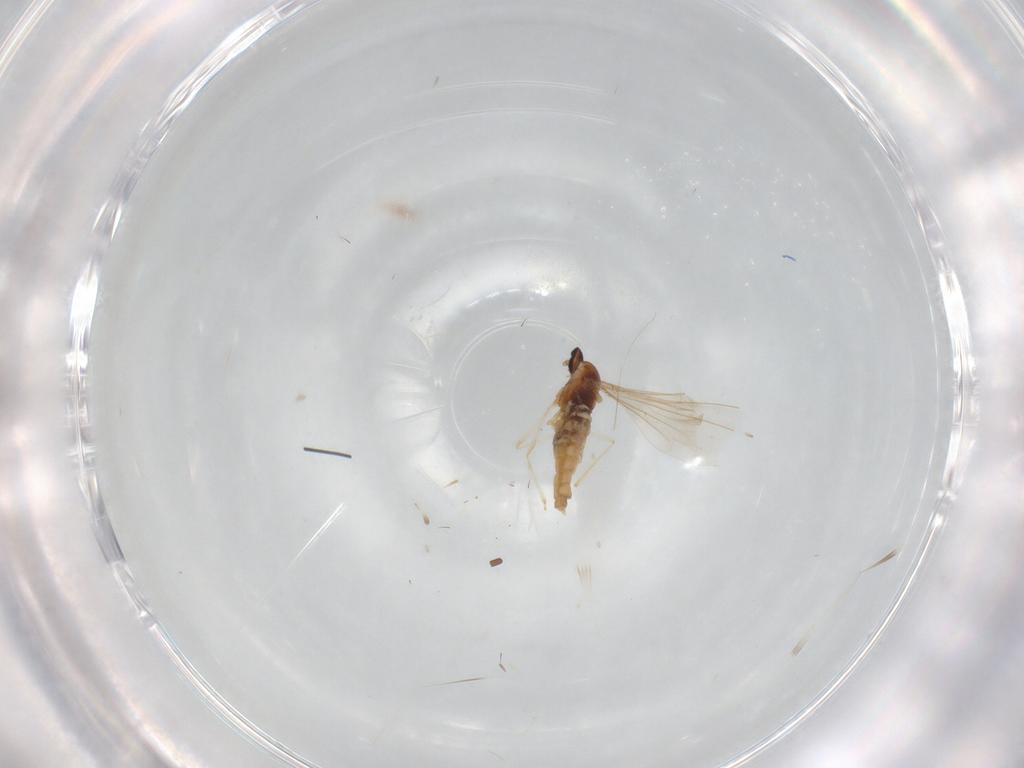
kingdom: Animalia
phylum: Arthropoda
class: Insecta
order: Diptera
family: Cecidomyiidae
